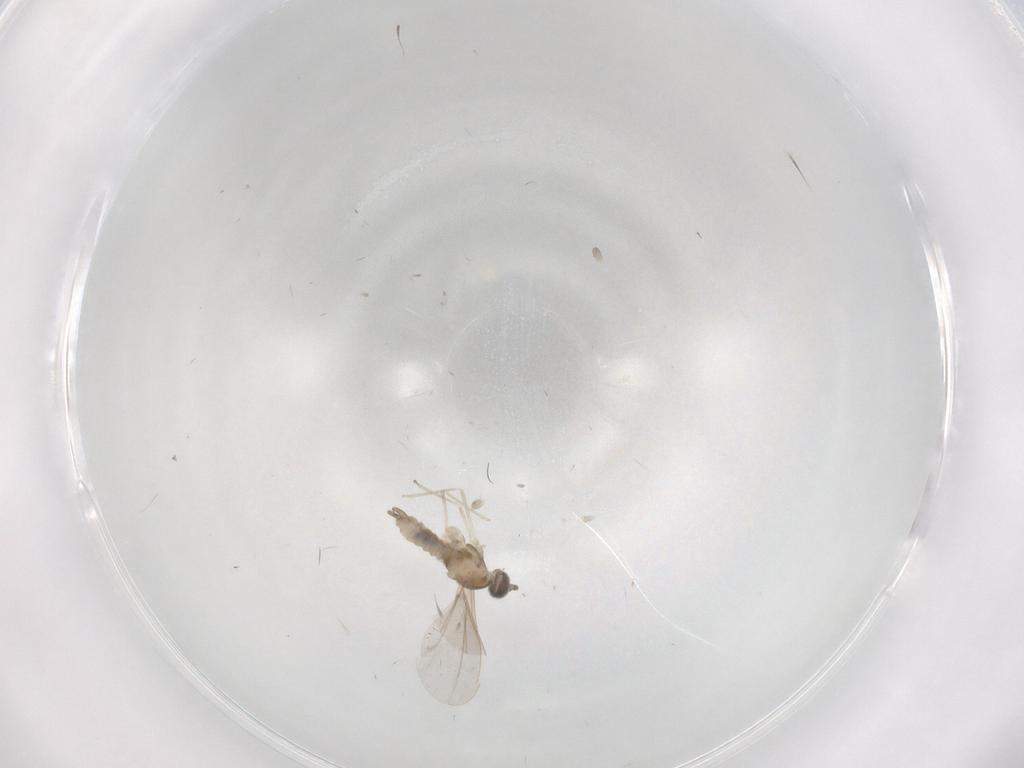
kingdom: Animalia
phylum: Arthropoda
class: Insecta
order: Diptera
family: Cecidomyiidae
